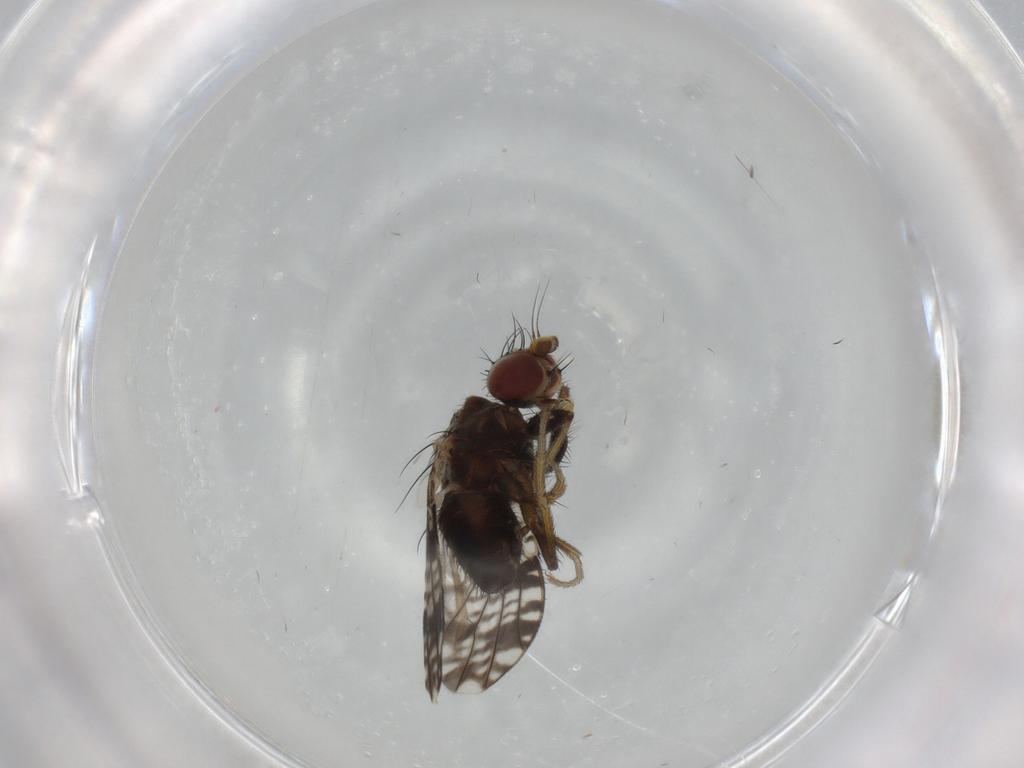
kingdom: Animalia
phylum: Arthropoda
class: Insecta
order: Diptera
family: Tephritidae
